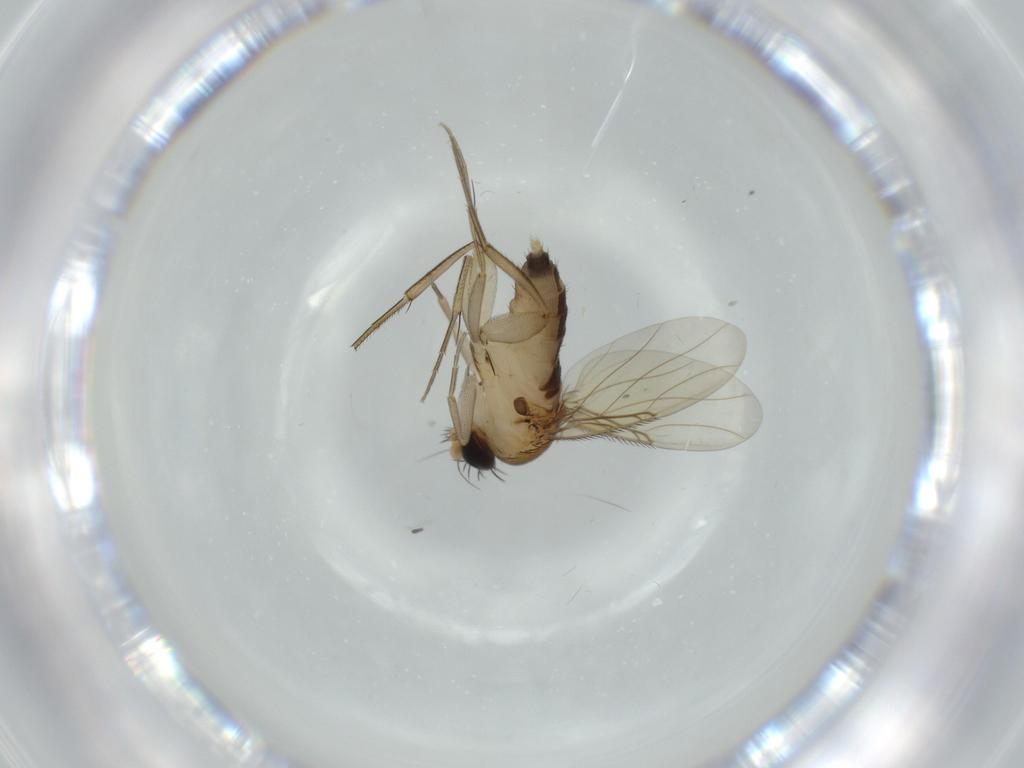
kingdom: Animalia
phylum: Arthropoda
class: Insecta
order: Diptera
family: Phoridae
